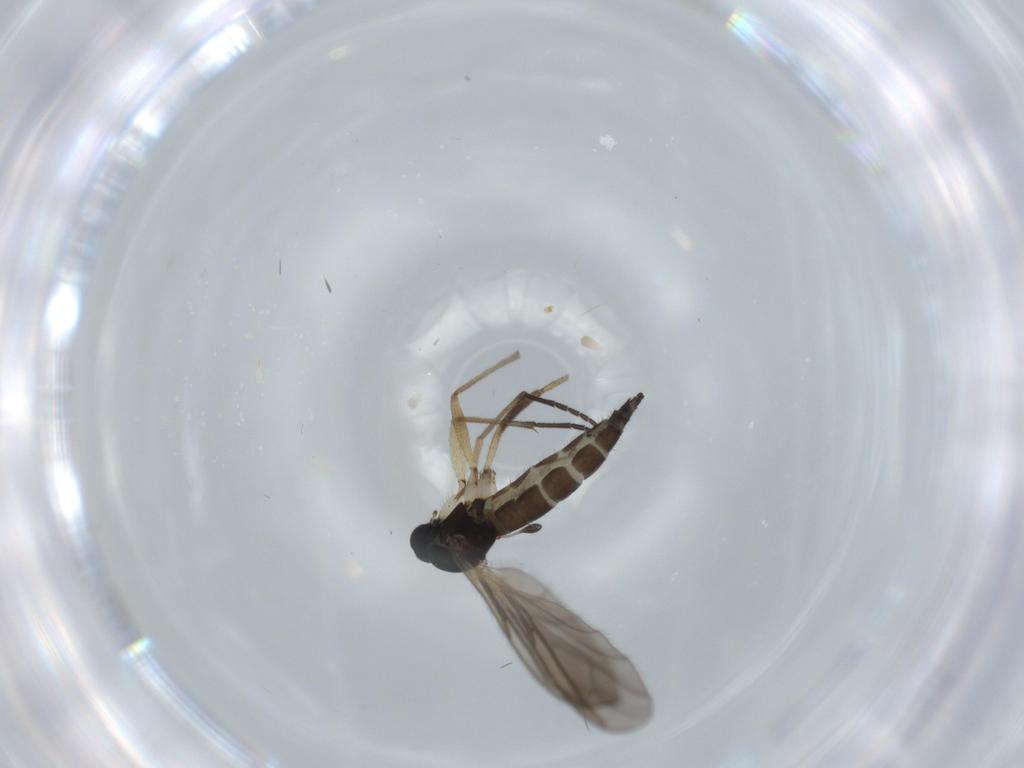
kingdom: Animalia
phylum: Arthropoda
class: Insecta
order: Diptera
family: Sciaridae
